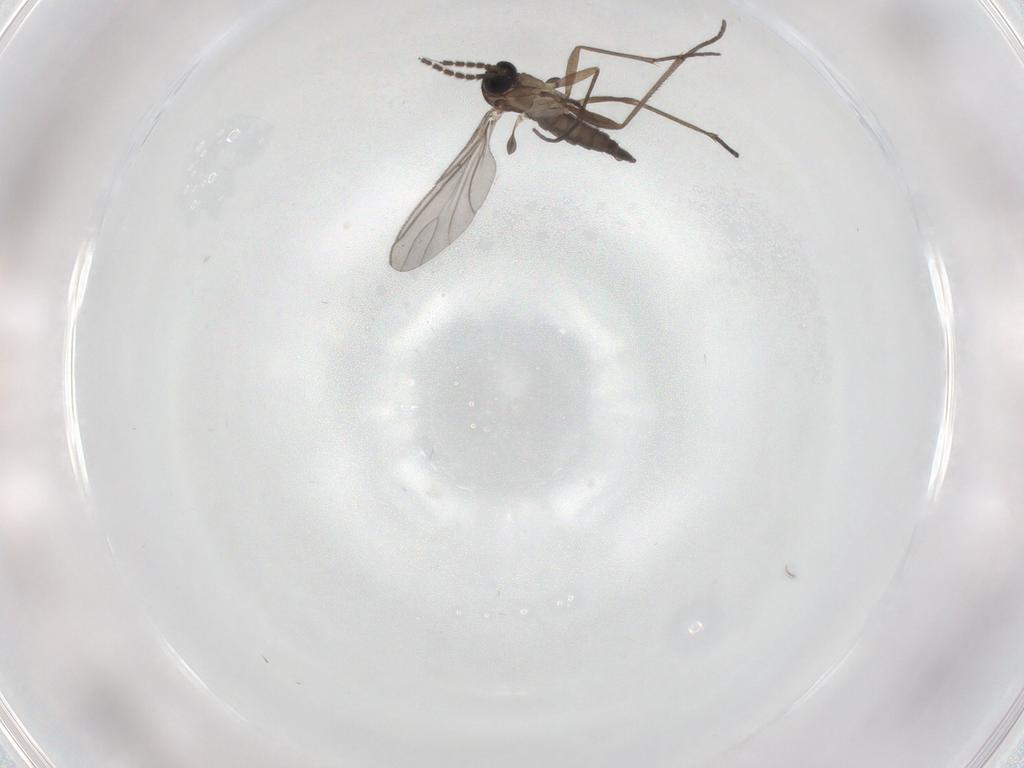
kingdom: Animalia
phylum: Arthropoda
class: Insecta
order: Diptera
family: Sciaridae
